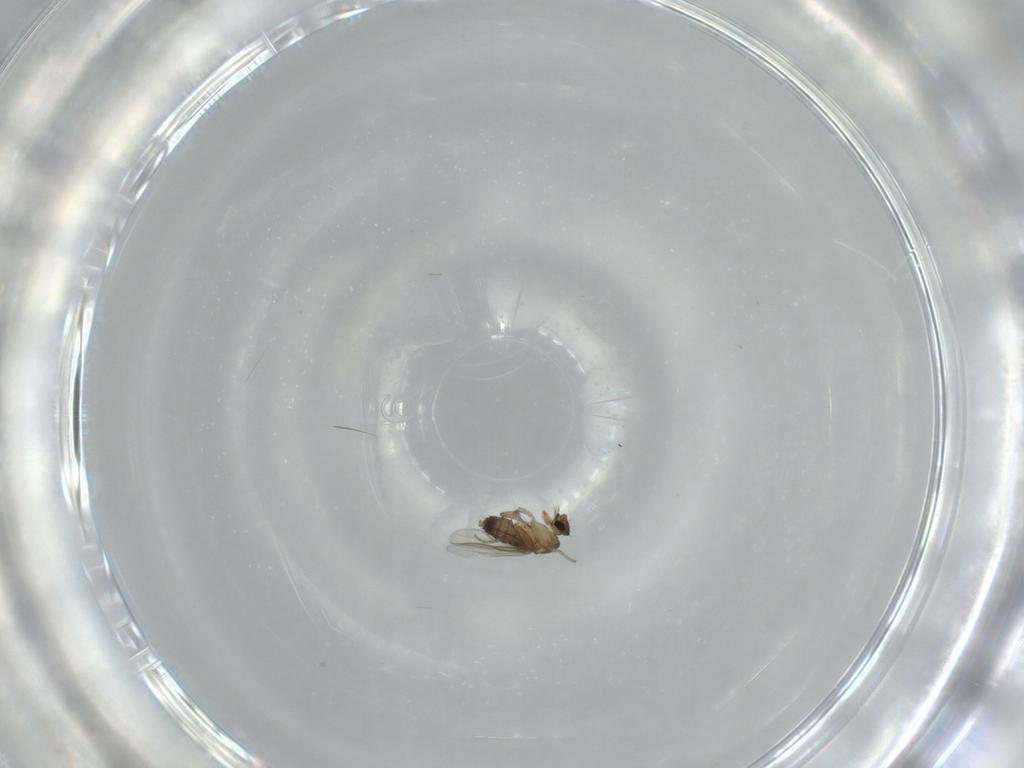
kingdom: Animalia
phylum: Arthropoda
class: Insecta
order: Diptera
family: Phoridae
